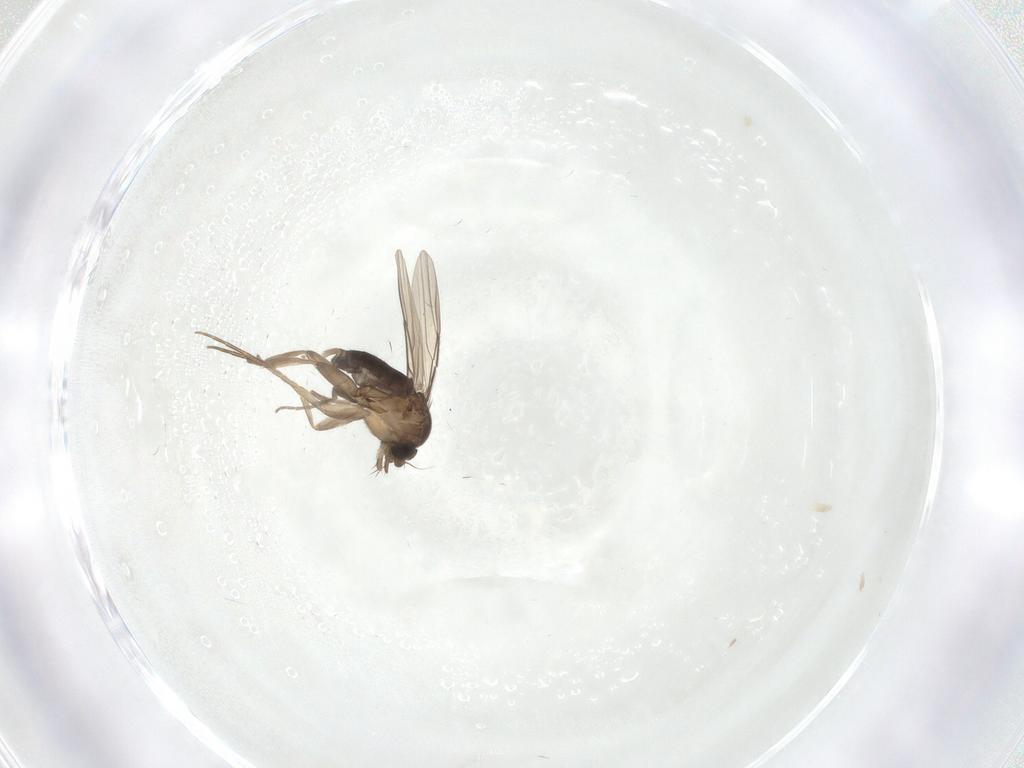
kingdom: Animalia
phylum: Arthropoda
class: Insecta
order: Diptera
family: Phoridae
